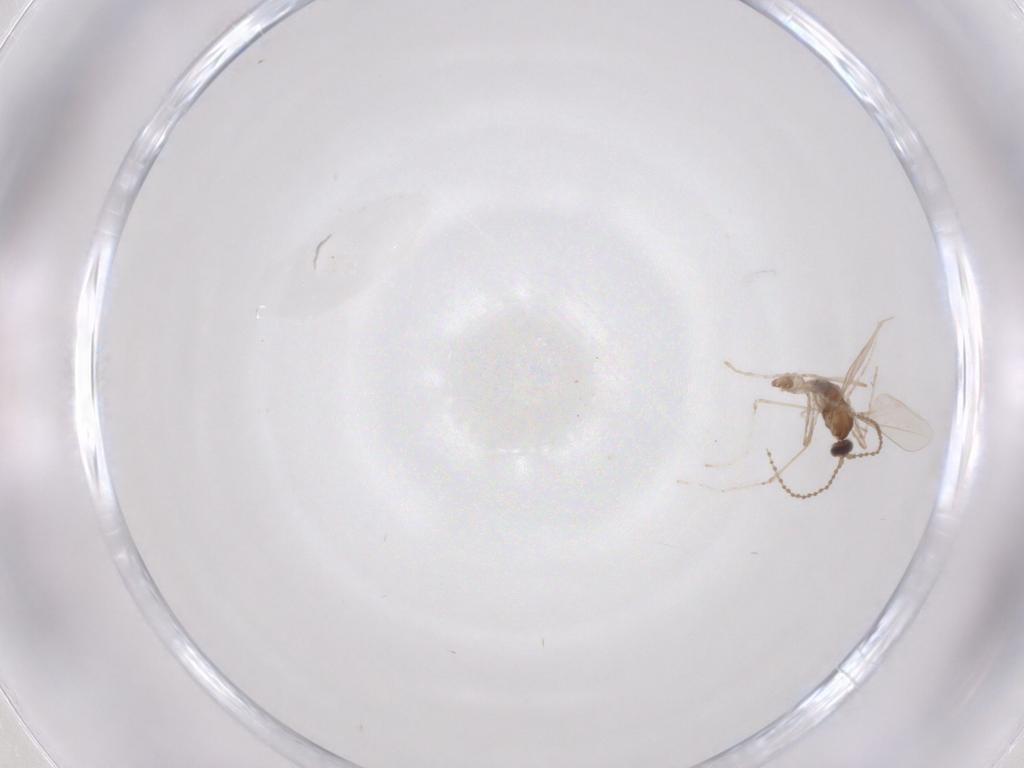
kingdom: Animalia
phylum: Arthropoda
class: Insecta
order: Diptera
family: Cecidomyiidae
